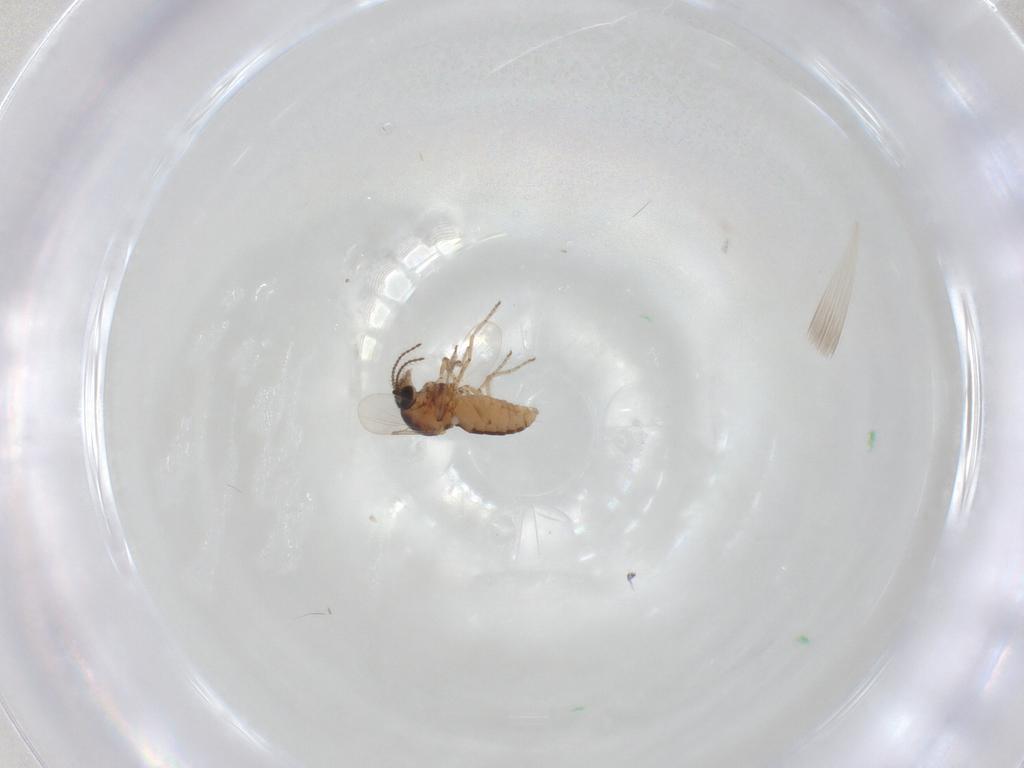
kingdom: Animalia
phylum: Arthropoda
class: Insecta
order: Diptera
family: Ceratopogonidae
